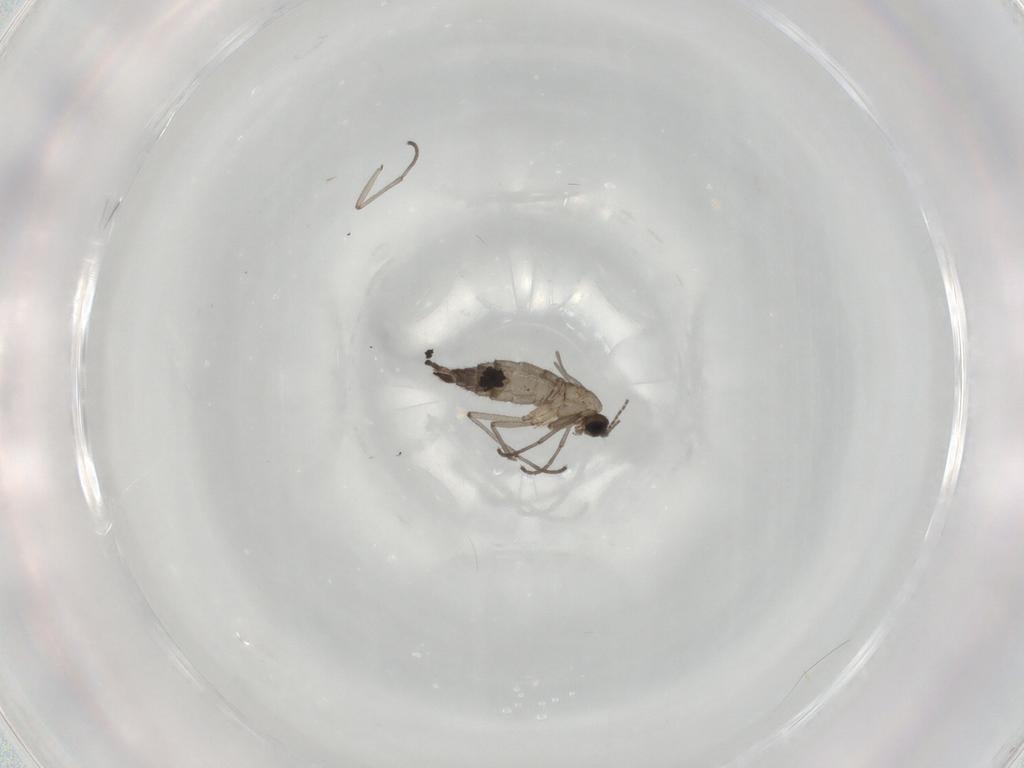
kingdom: Animalia
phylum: Arthropoda
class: Insecta
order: Diptera
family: Sciaridae
